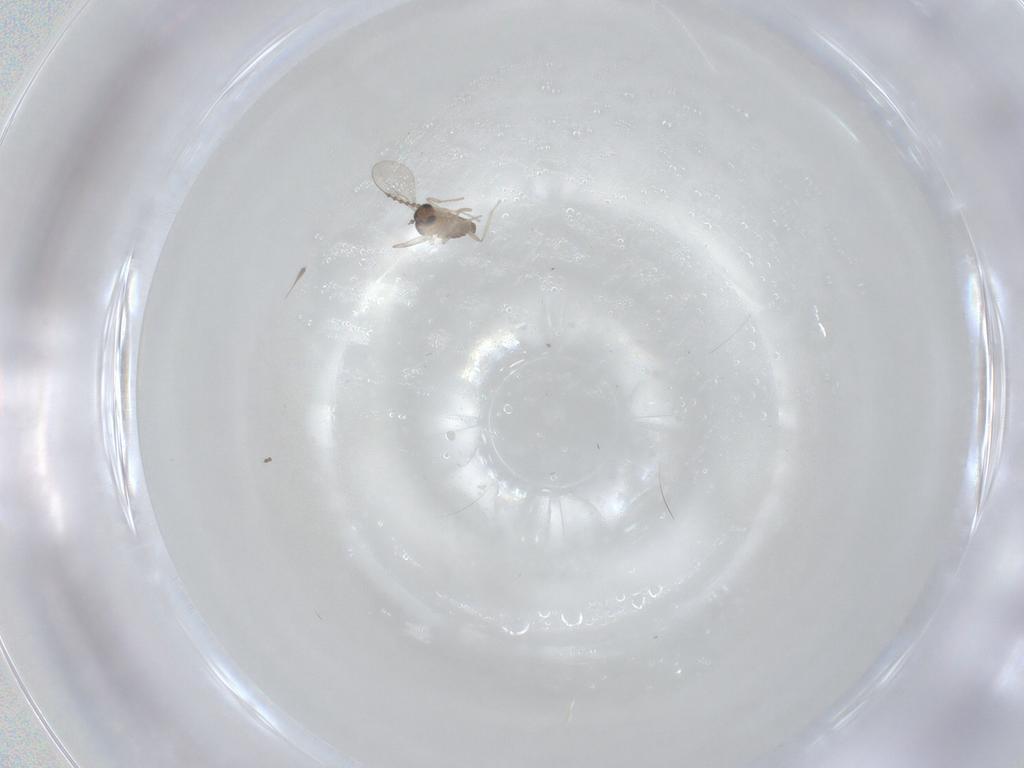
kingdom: Animalia
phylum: Arthropoda
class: Insecta
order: Diptera
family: Cecidomyiidae
